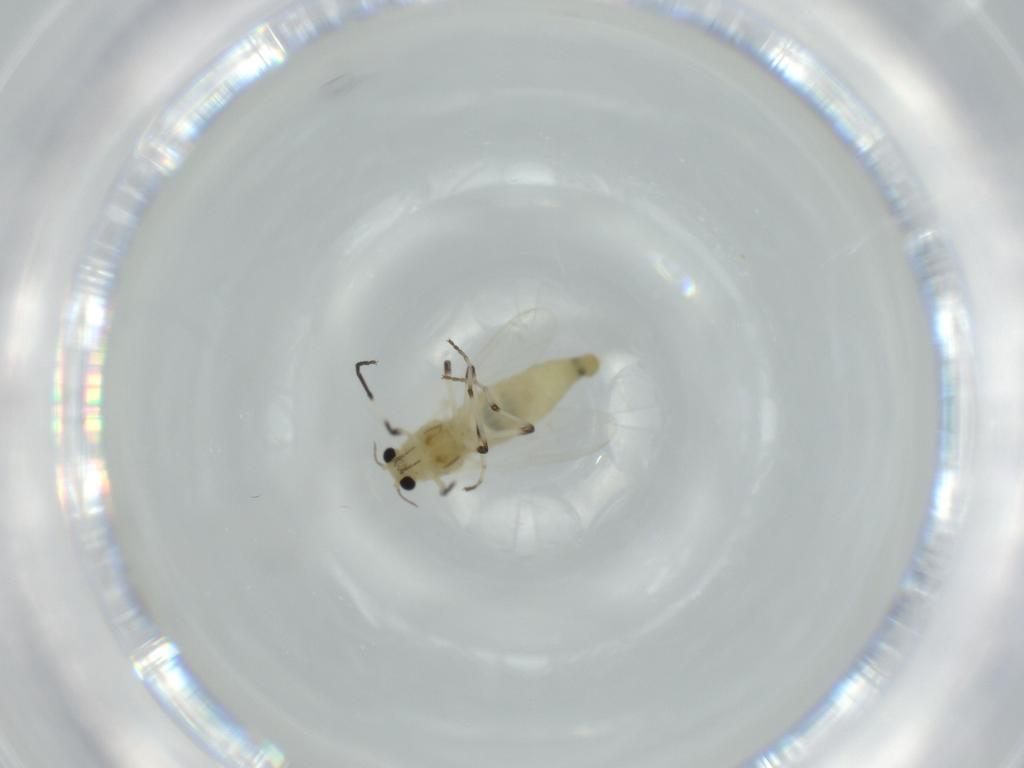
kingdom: Animalia
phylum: Arthropoda
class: Insecta
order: Diptera
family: Chironomidae
